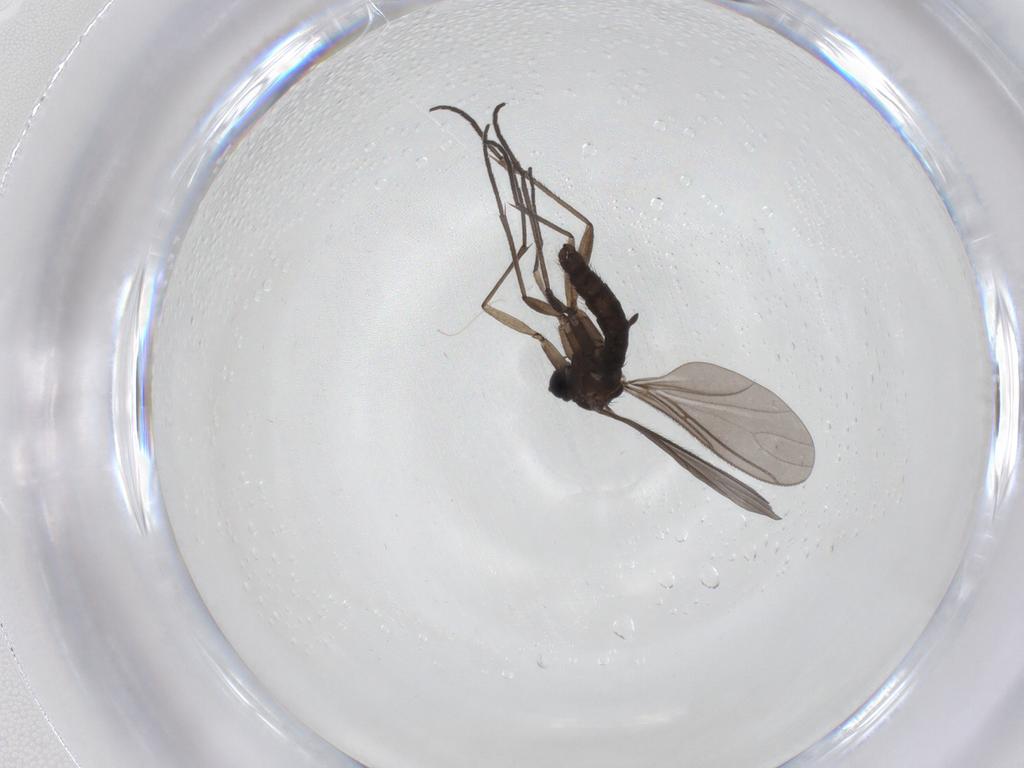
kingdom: Animalia
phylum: Arthropoda
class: Insecta
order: Diptera
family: Sciaridae
